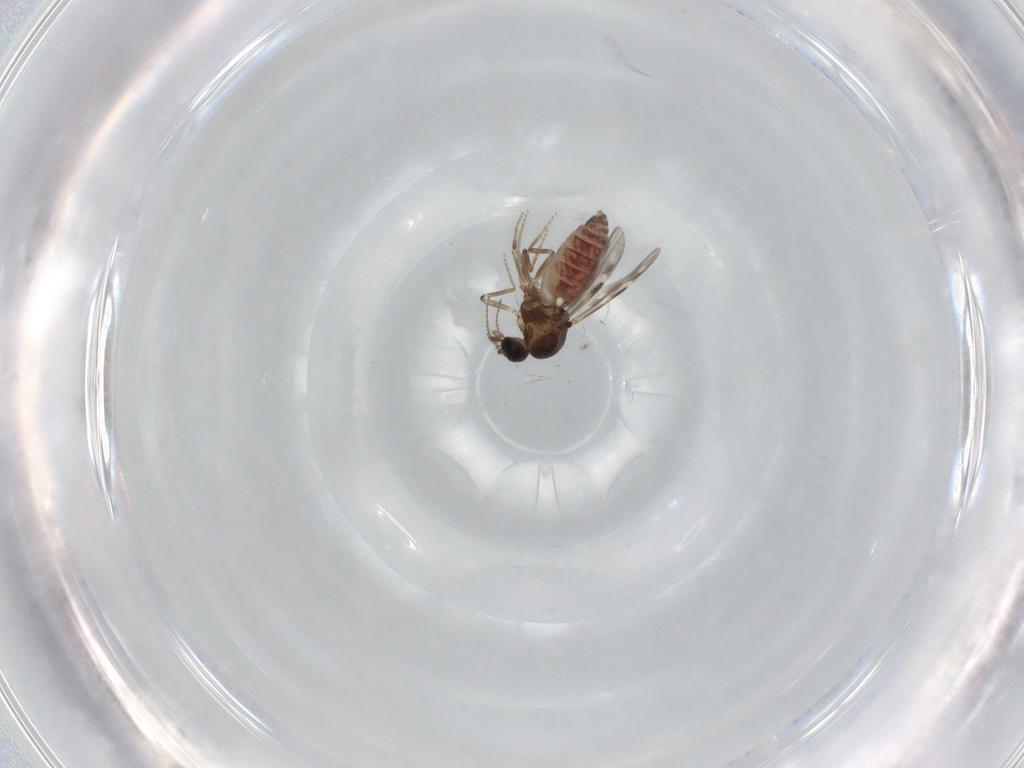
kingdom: Animalia
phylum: Arthropoda
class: Insecta
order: Diptera
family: Ceratopogonidae
